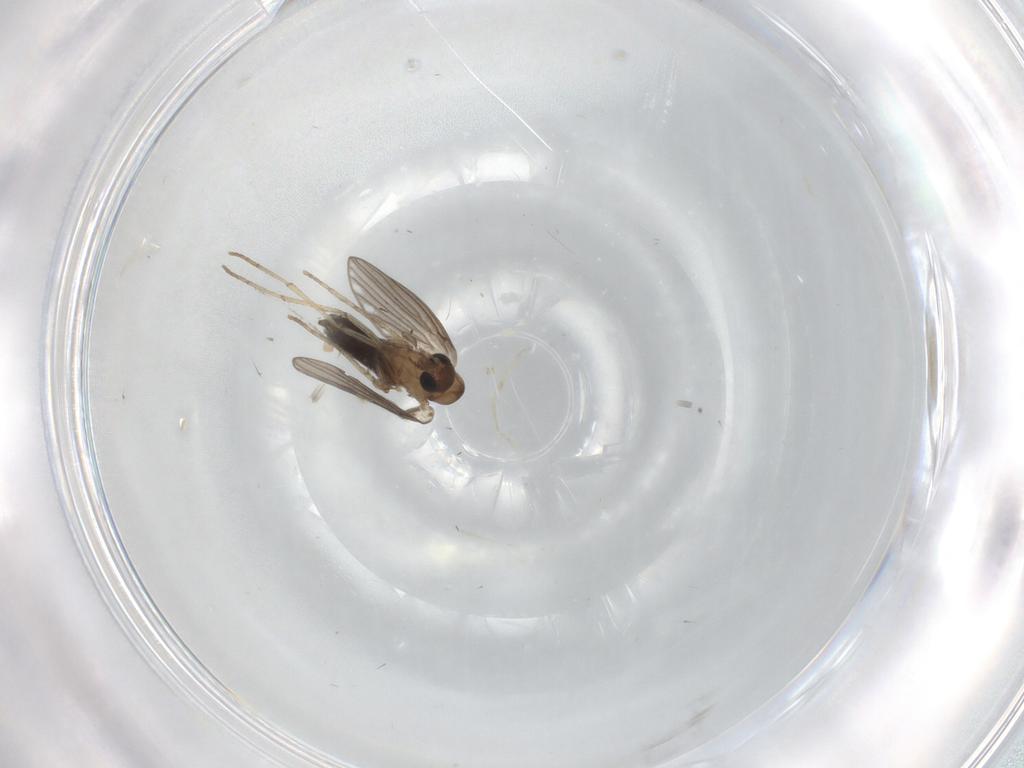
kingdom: Animalia
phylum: Arthropoda
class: Insecta
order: Diptera
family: Psychodidae
